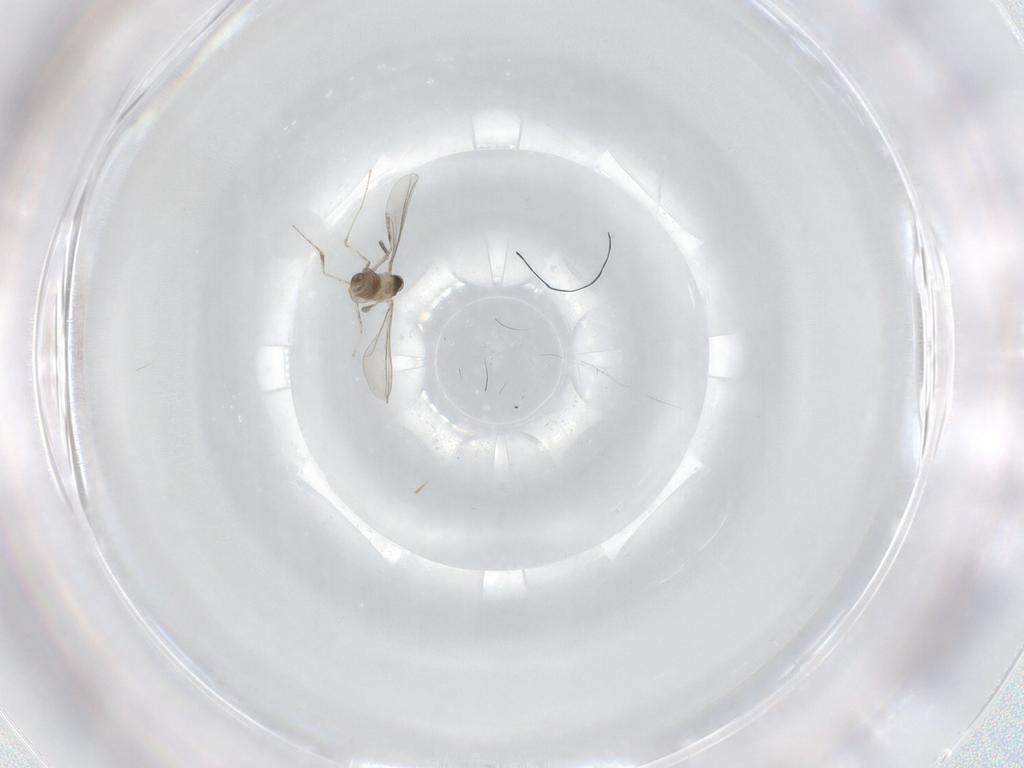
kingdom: Animalia
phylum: Arthropoda
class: Insecta
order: Diptera
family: Cecidomyiidae
